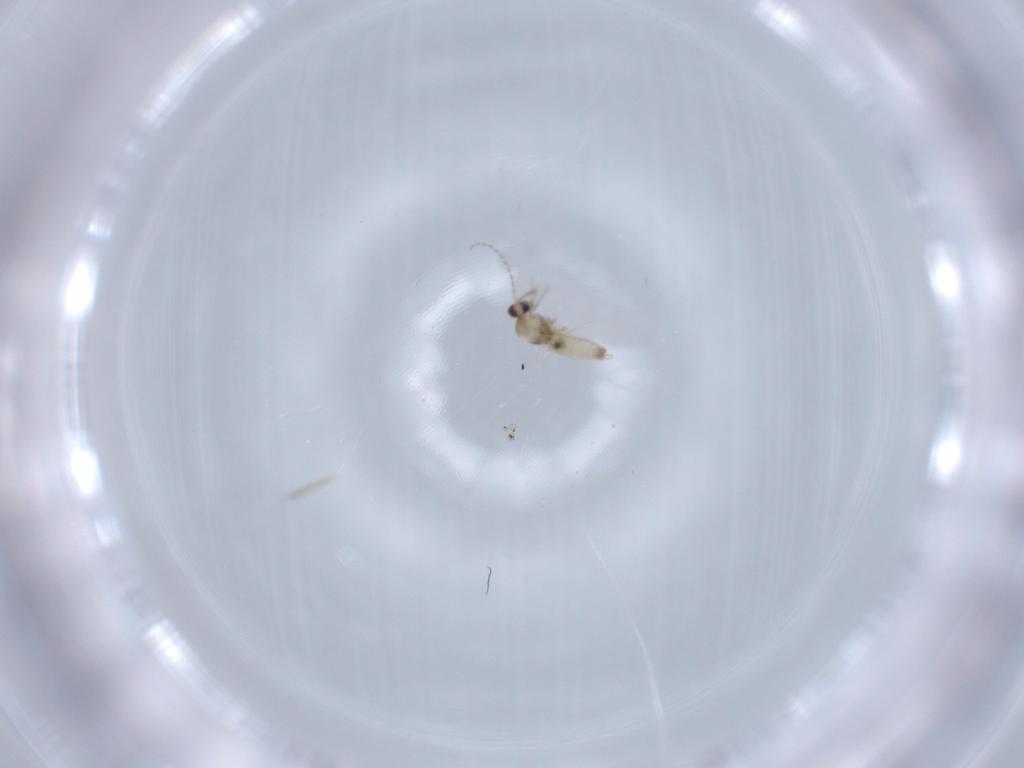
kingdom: Animalia
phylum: Arthropoda
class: Insecta
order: Diptera
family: Cecidomyiidae
